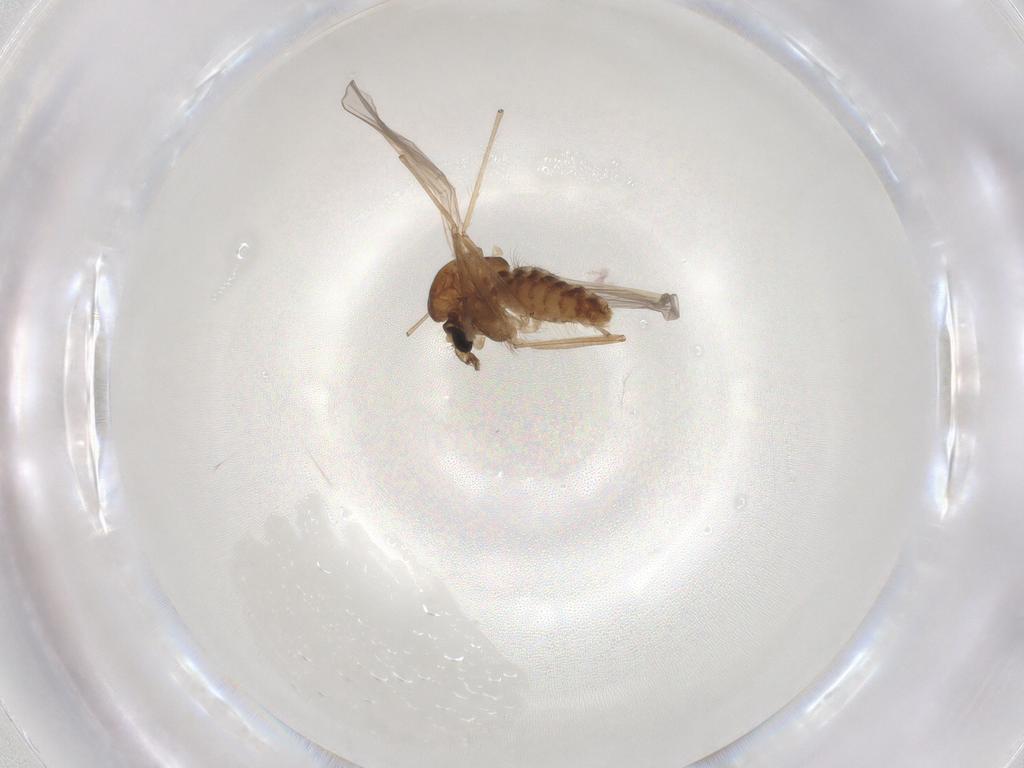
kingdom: Animalia
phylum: Arthropoda
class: Insecta
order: Diptera
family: Chironomidae
